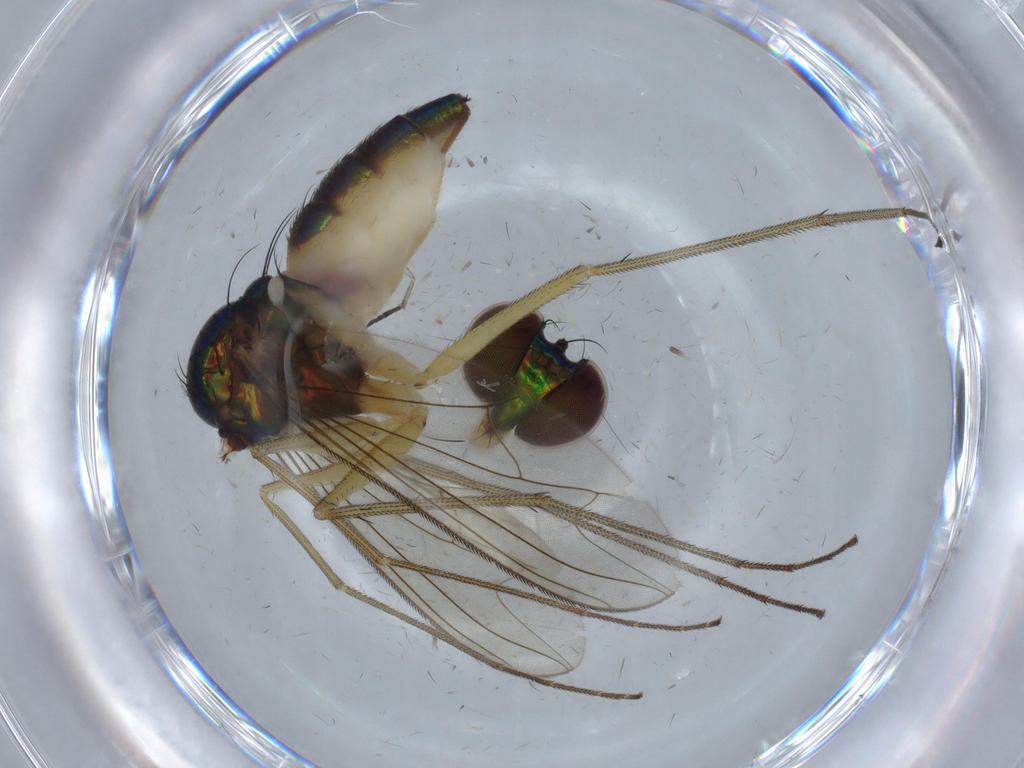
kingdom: Animalia
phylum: Arthropoda
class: Insecta
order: Diptera
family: Dolichopodidae
